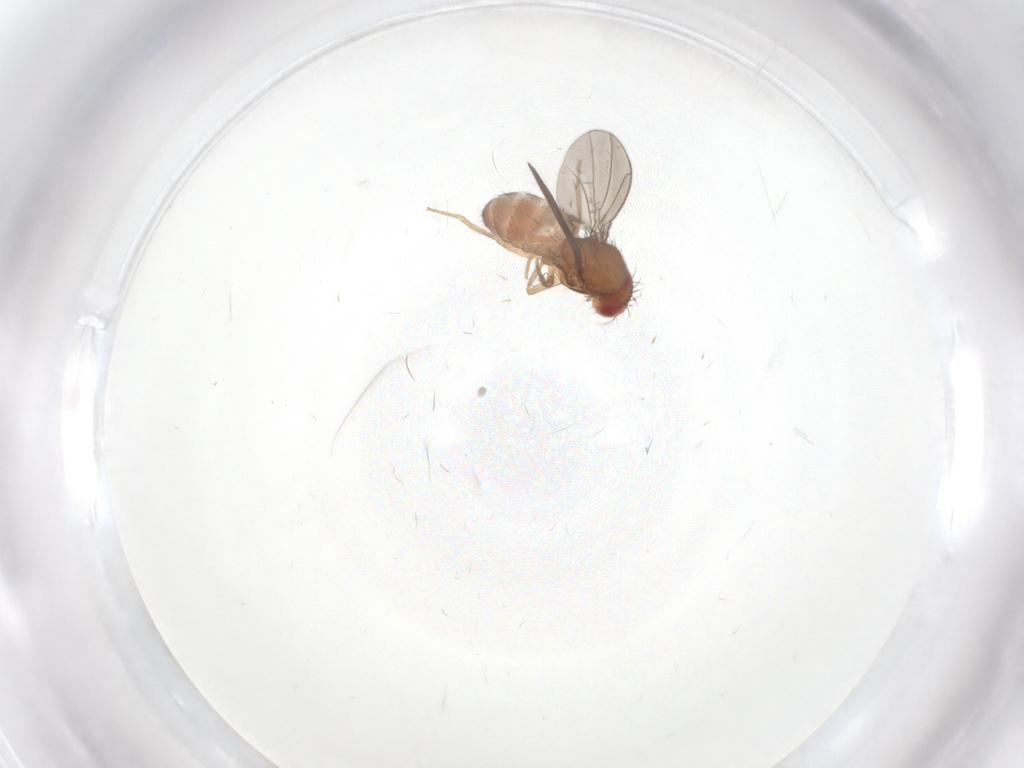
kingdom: Animalia
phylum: Arthropoda
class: Insecta
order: Diptera
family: Drosophilidae
